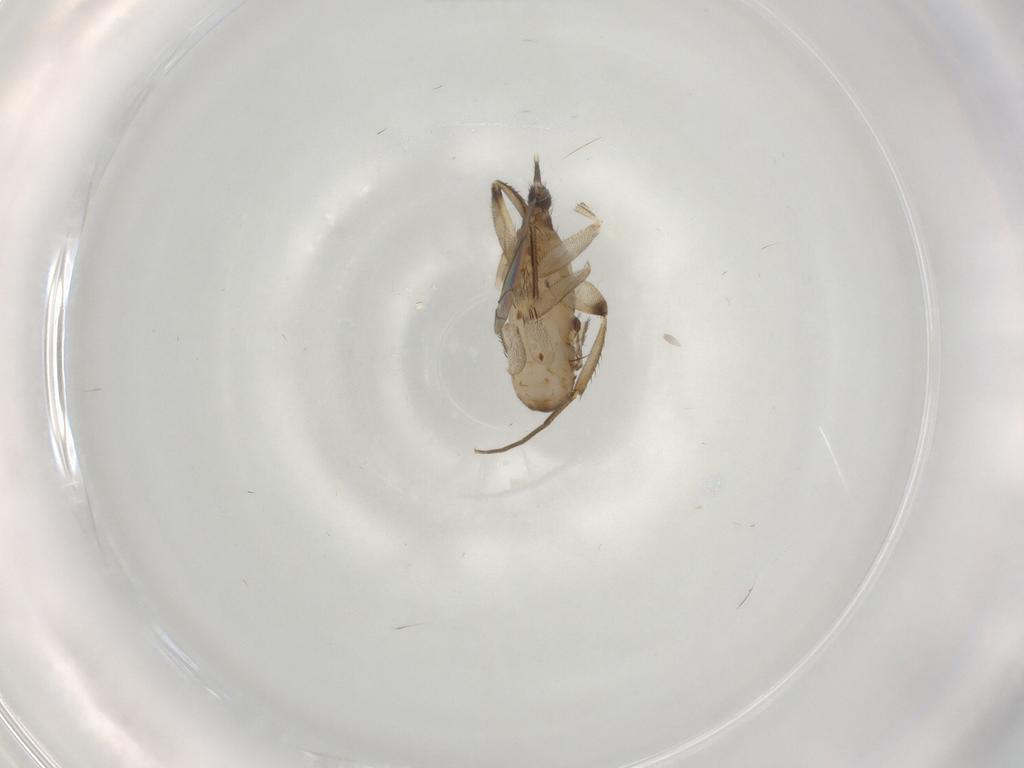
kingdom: Animalia
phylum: Arthropoda
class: Insecta
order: Diptera
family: Phoridae
